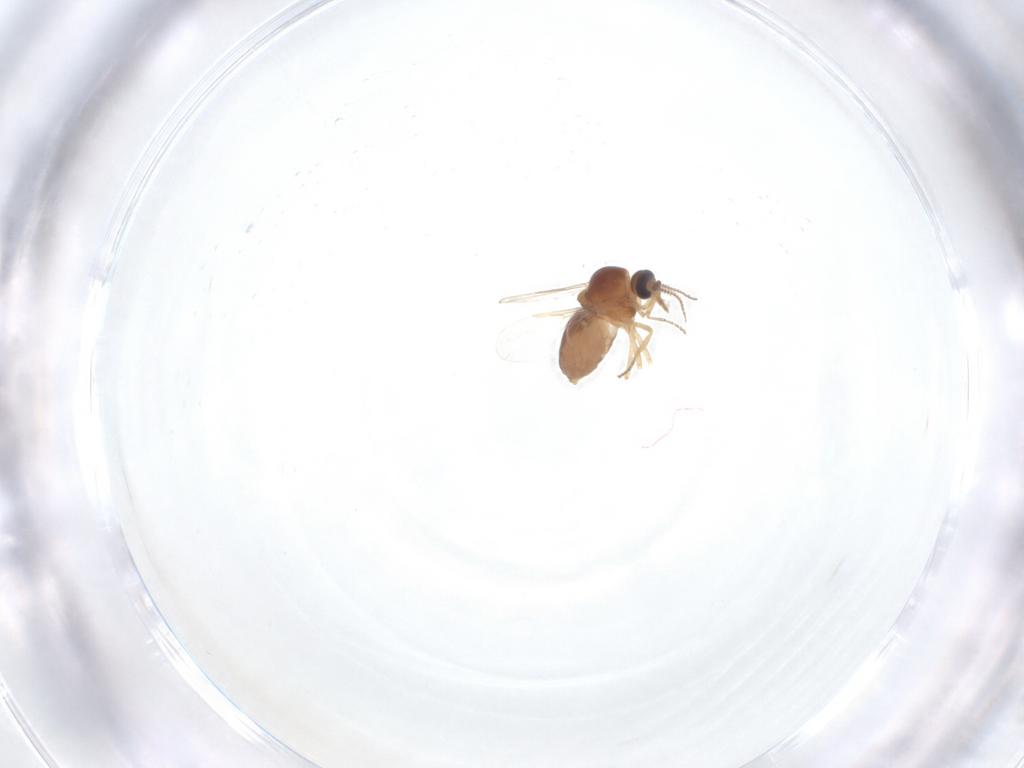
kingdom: Animalia
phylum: Arthropoda
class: Insecta
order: Diptera
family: Ceratopogonidae
